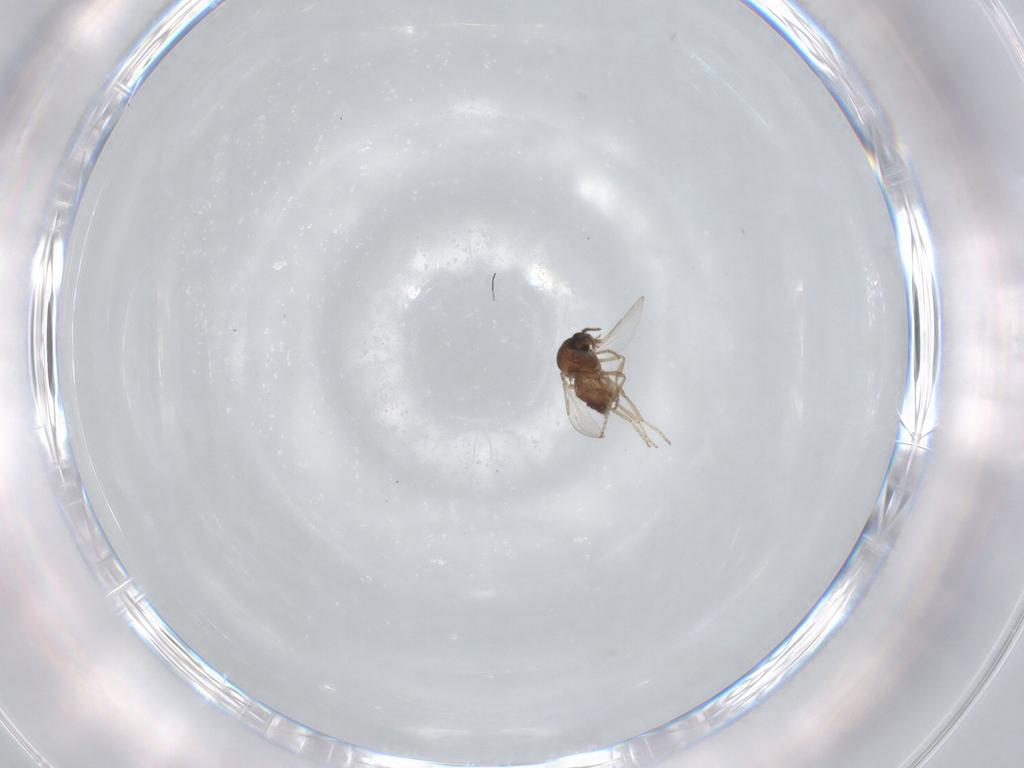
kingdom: Animalia
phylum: Arthropoda
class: Insecta
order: Diptera
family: Ceratopogonidae
